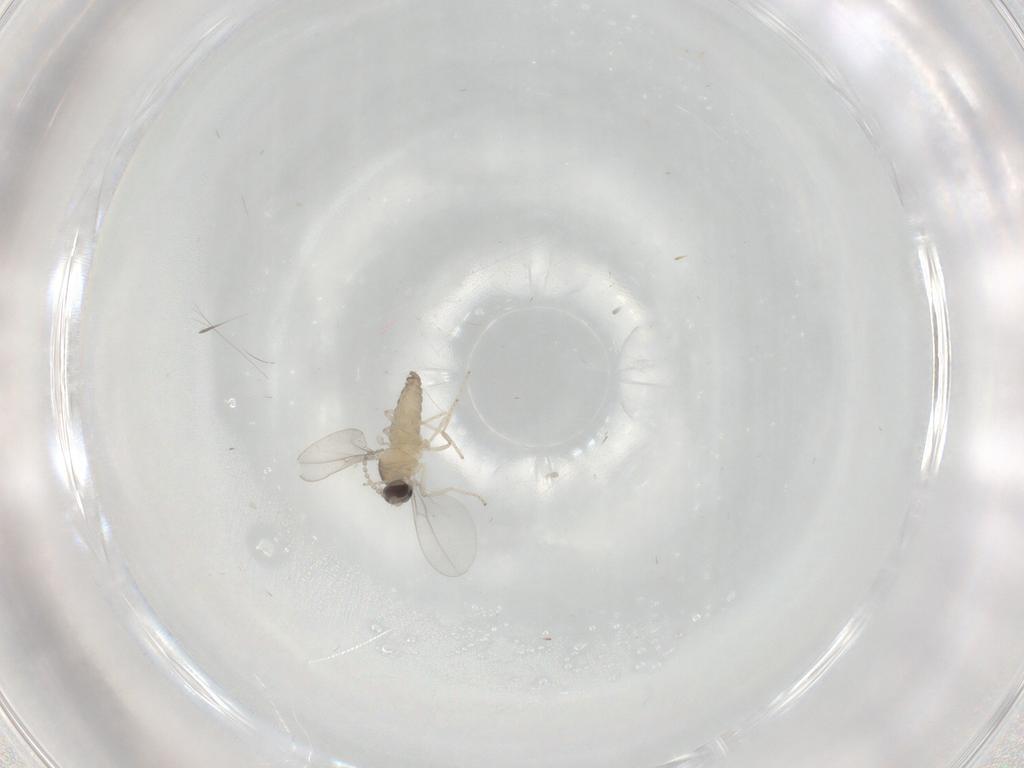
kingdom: Animalia
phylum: Arthropoda
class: Insecta
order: Diptera
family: Cecidomyiidae
